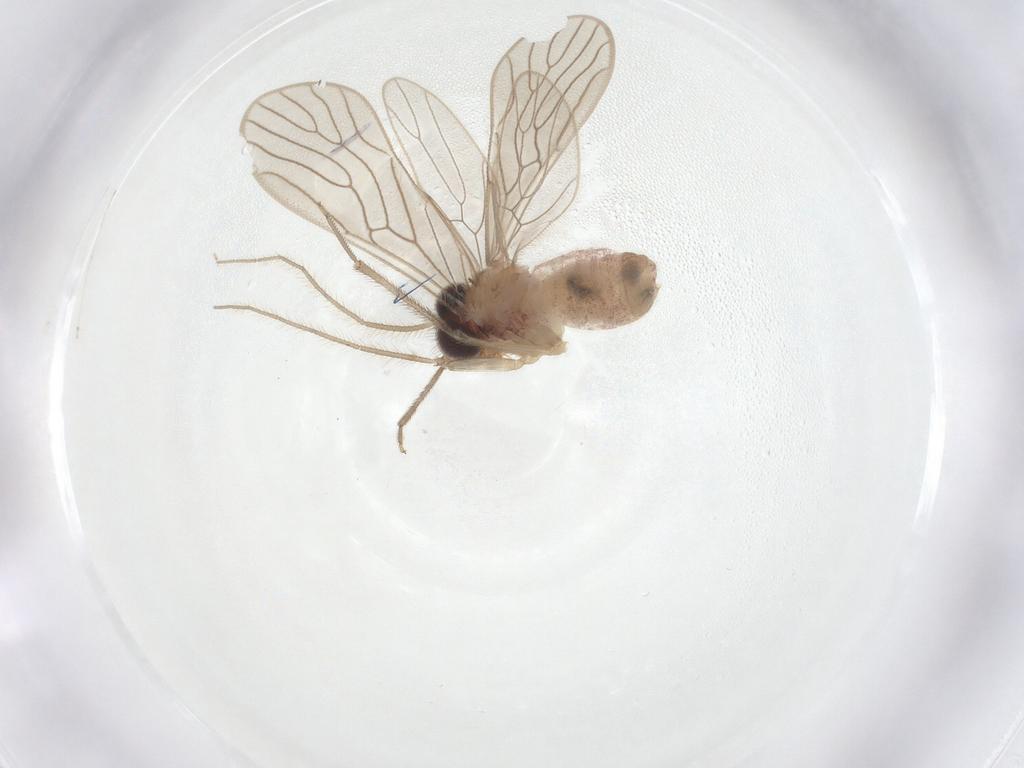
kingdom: Animalia
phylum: Arthropoda
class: Insecta
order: Psocodea
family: Epipsocidae
